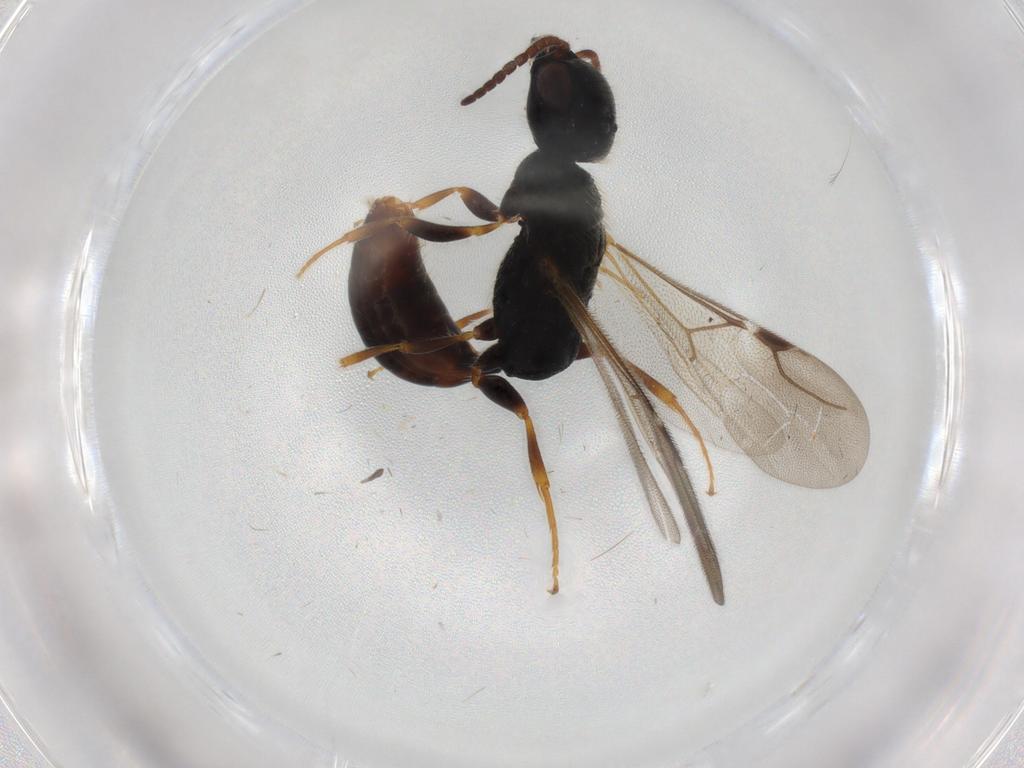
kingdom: Animalia
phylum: Arthropoda
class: Insecta
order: Hymenoptera
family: Bethylidae
